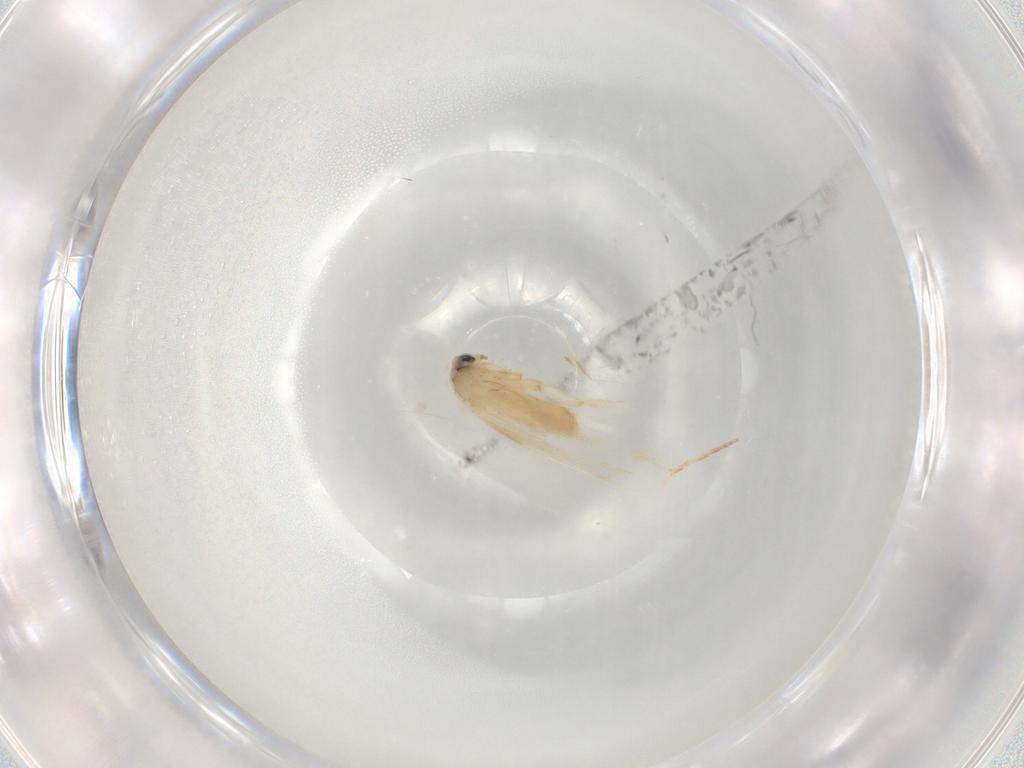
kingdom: Animalia
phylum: Arthropoda
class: Insecta
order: Lepidoptera
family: Nepticulidae
